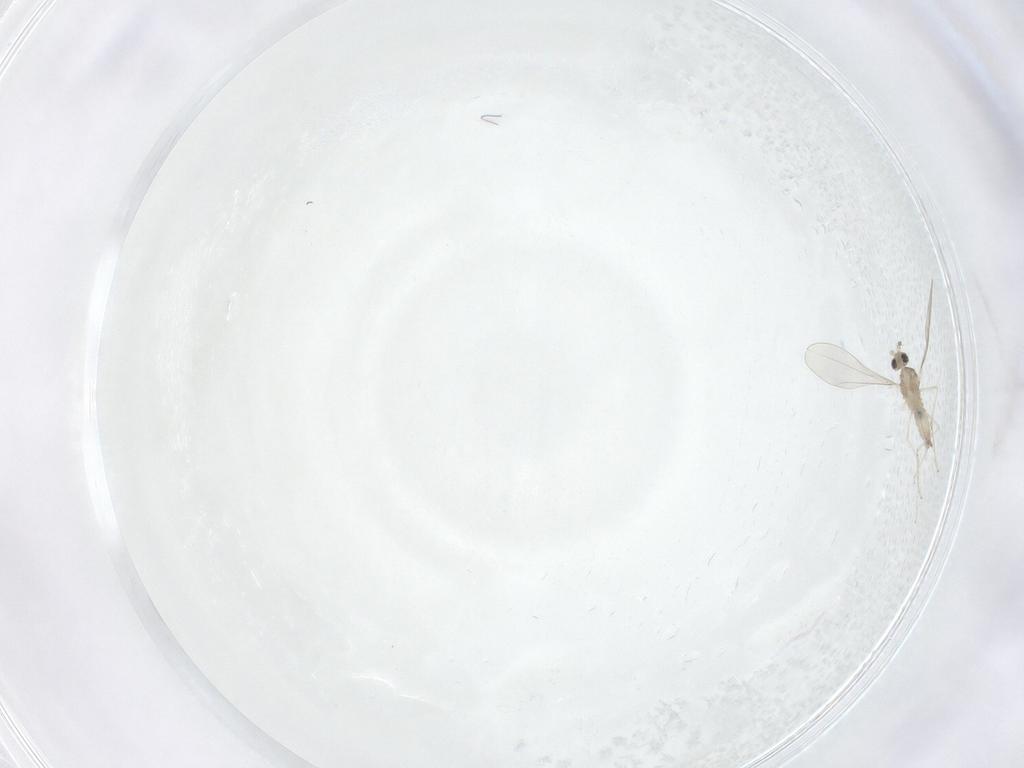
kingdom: Animalia
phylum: Arthropoda
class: Insecta
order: Diptera
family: Cecidomyiidae
